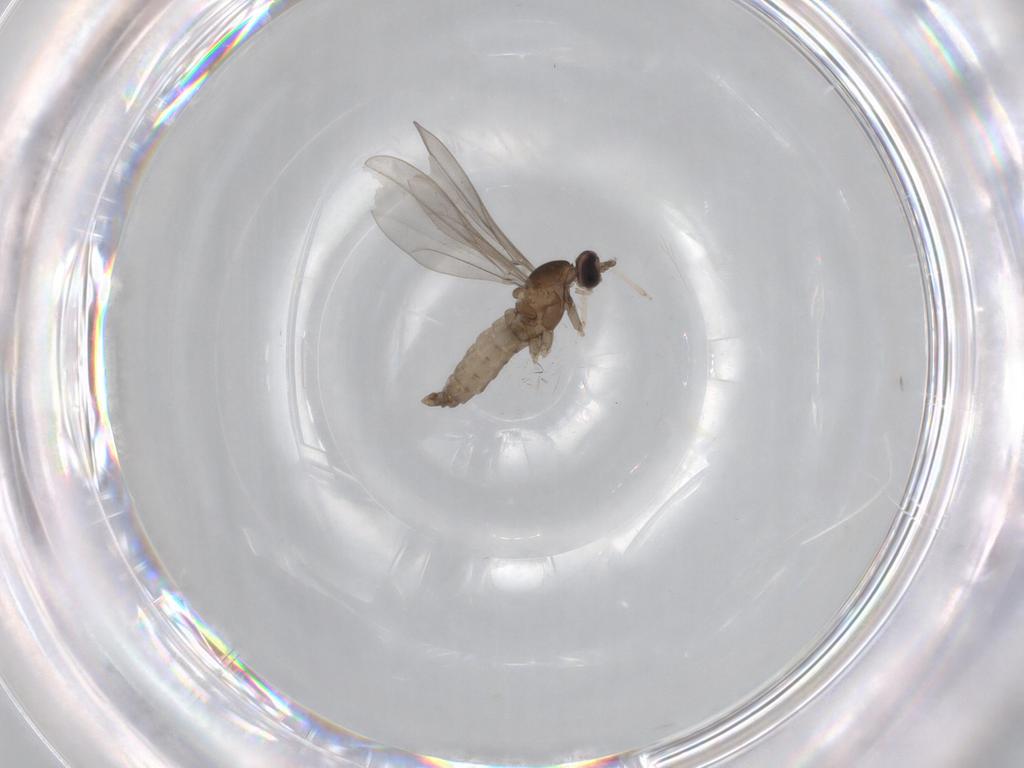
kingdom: Animalia
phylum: Arthropoda
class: Insecta
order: Diptera
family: Cecidomyiidae
